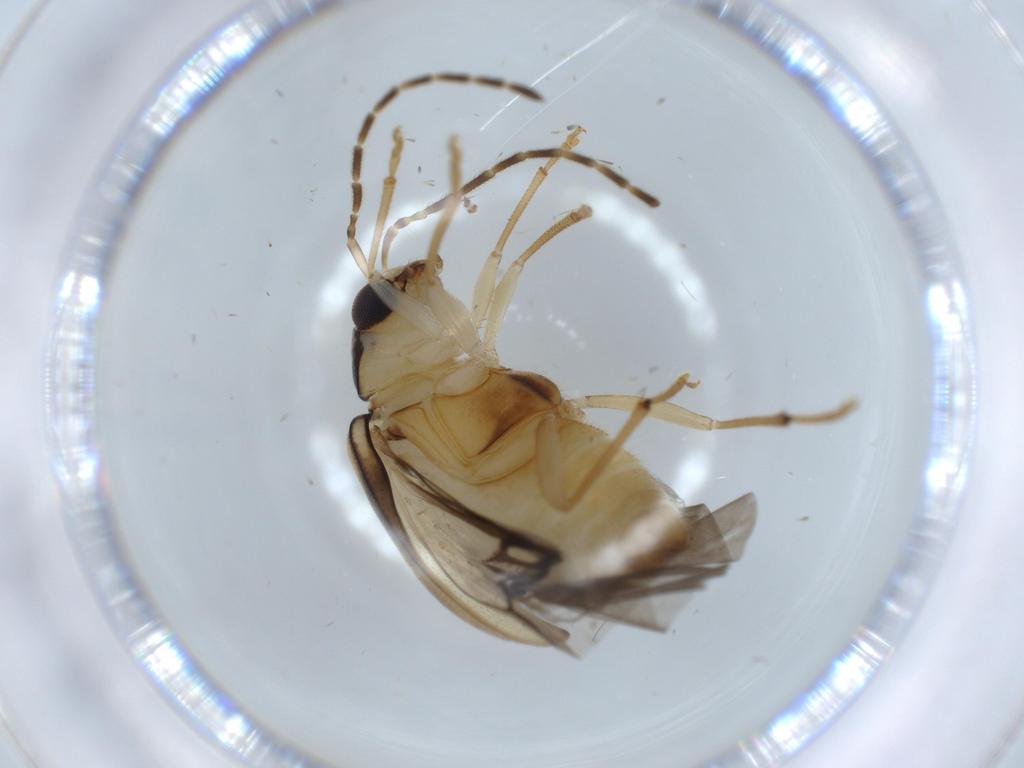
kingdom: Animalia
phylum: Arthropoda
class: Insecta
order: Coleoptera
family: Chrysomelidae
